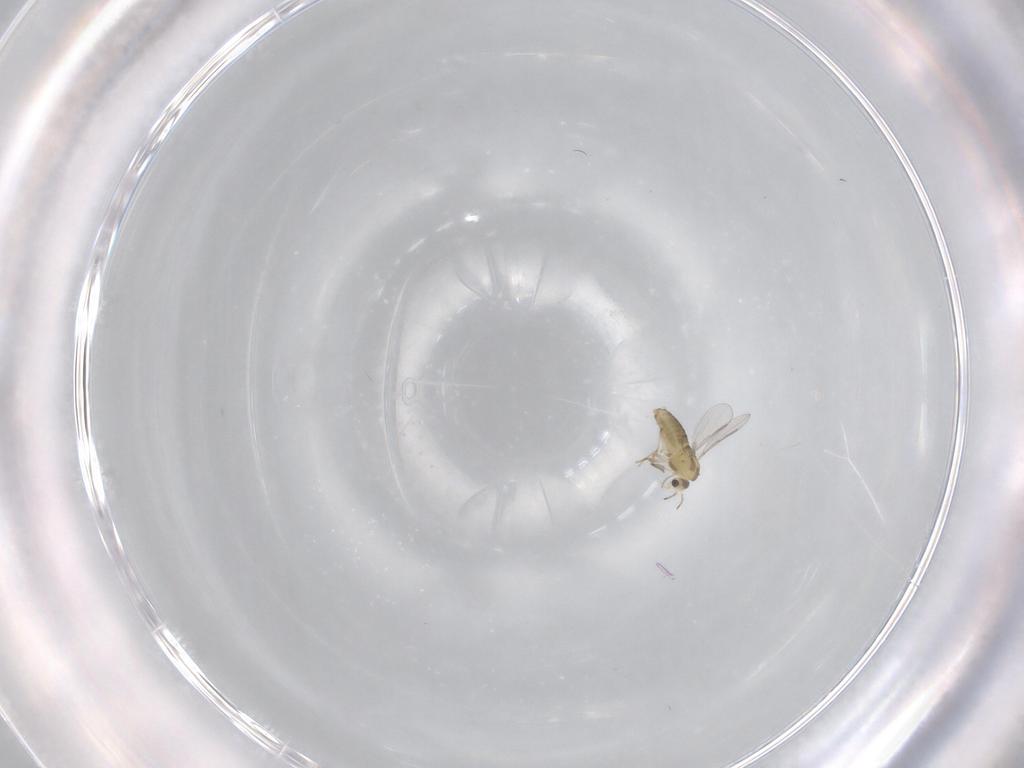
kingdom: Animalia
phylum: Arthropoda
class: Insecta
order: Diptera
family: Chironomidae
